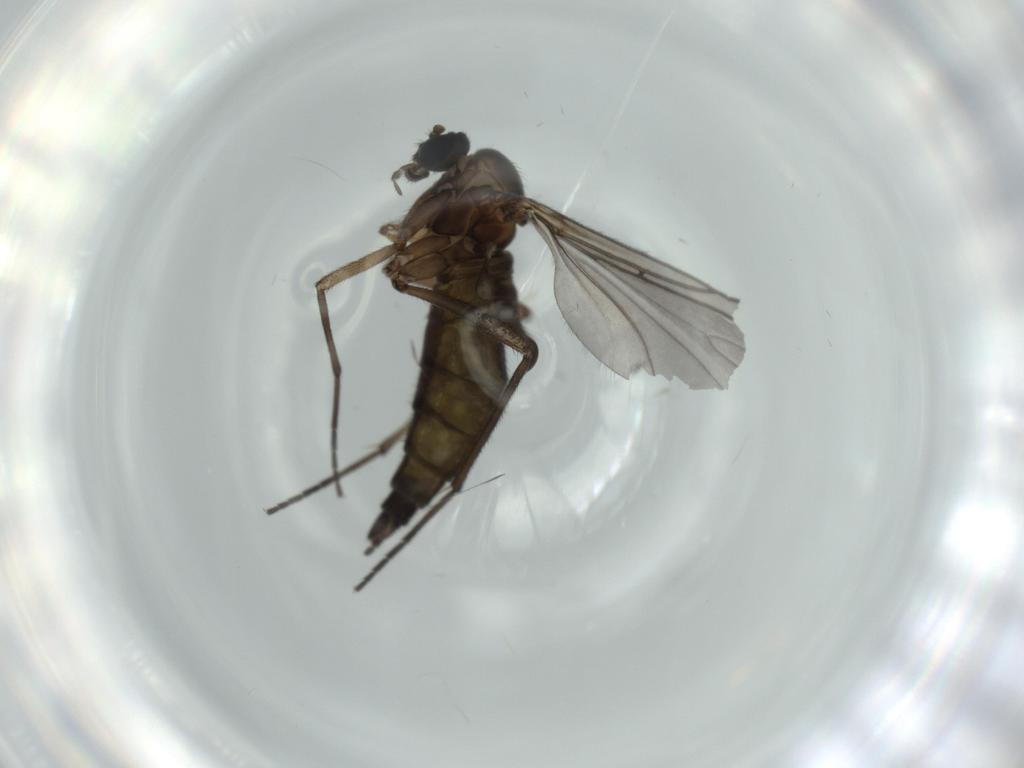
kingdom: Animalia
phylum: Arthropoda
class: Insecta
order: Diptera
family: Sciaridae
